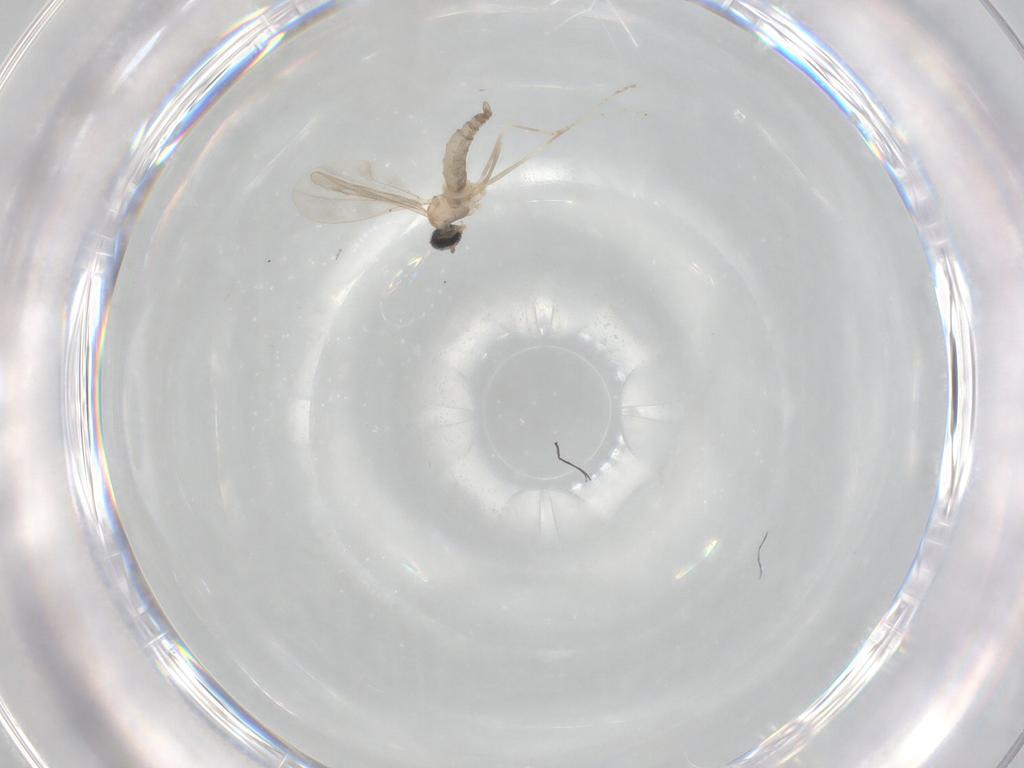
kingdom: Animalia
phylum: Arthropoda
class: Insecta
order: Diptera
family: Cecidomyiidae
